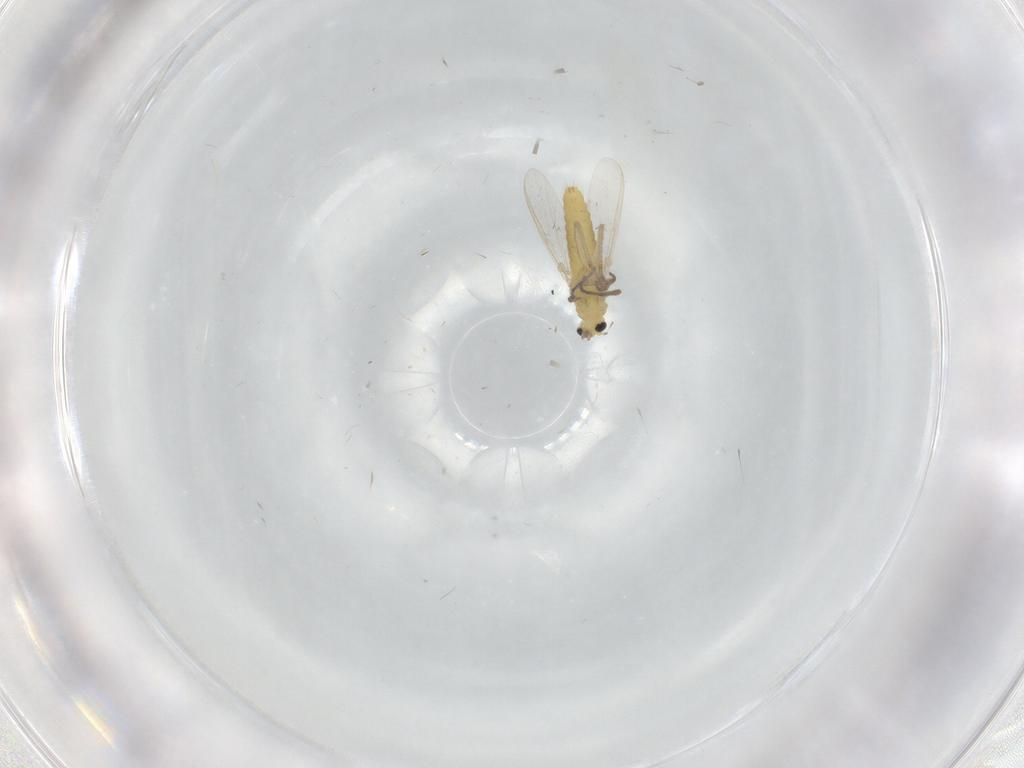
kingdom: Animalia
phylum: Arthropoda
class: Insecta
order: Diptera
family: Chironomidae
